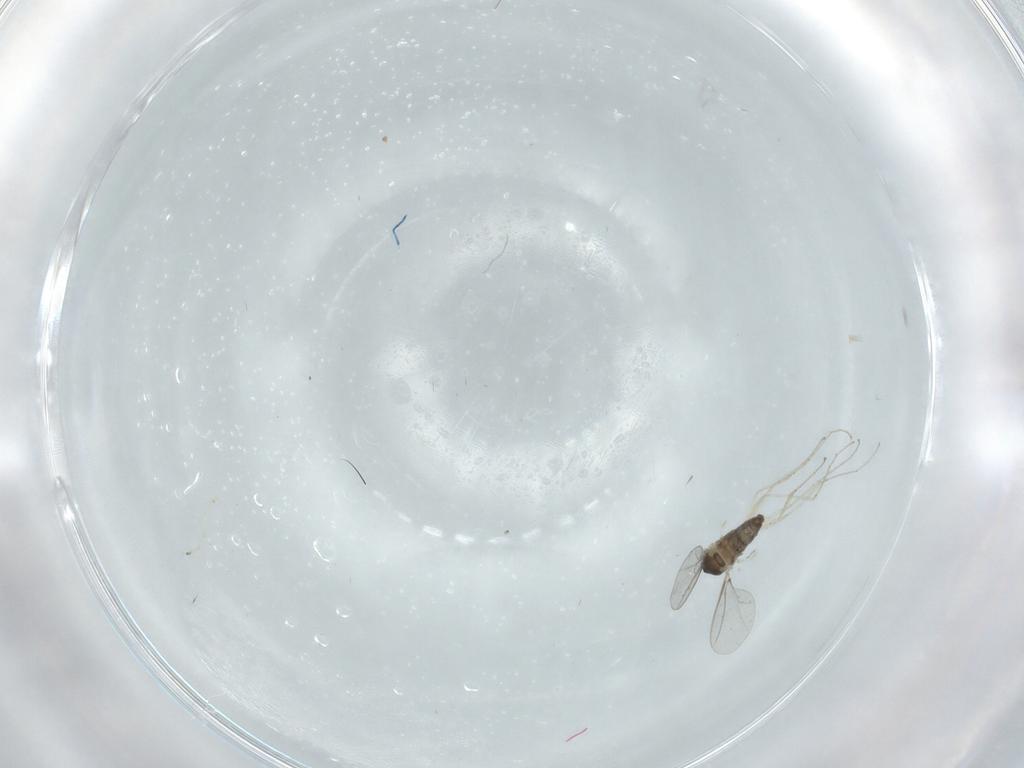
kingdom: Animalia
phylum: Arthropoda
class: Insecta
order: Diptera
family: Cecidomyiidae
